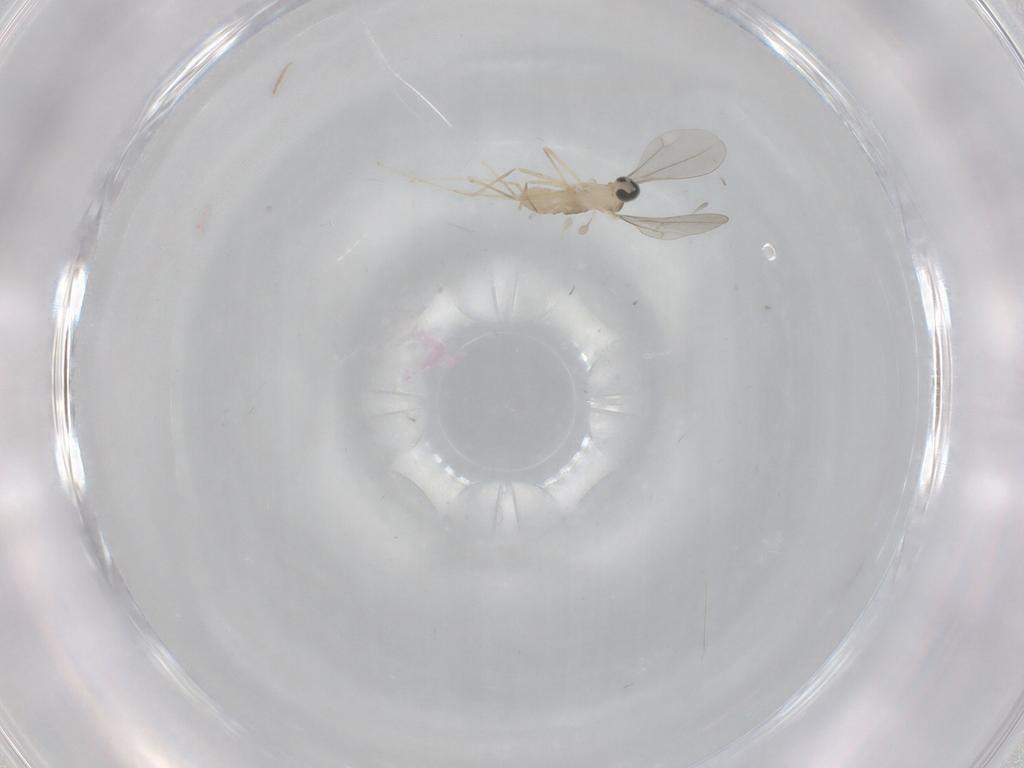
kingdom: Animalia
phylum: Arthropoda
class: Insecta
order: Diptera
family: Cecidomyiidae
